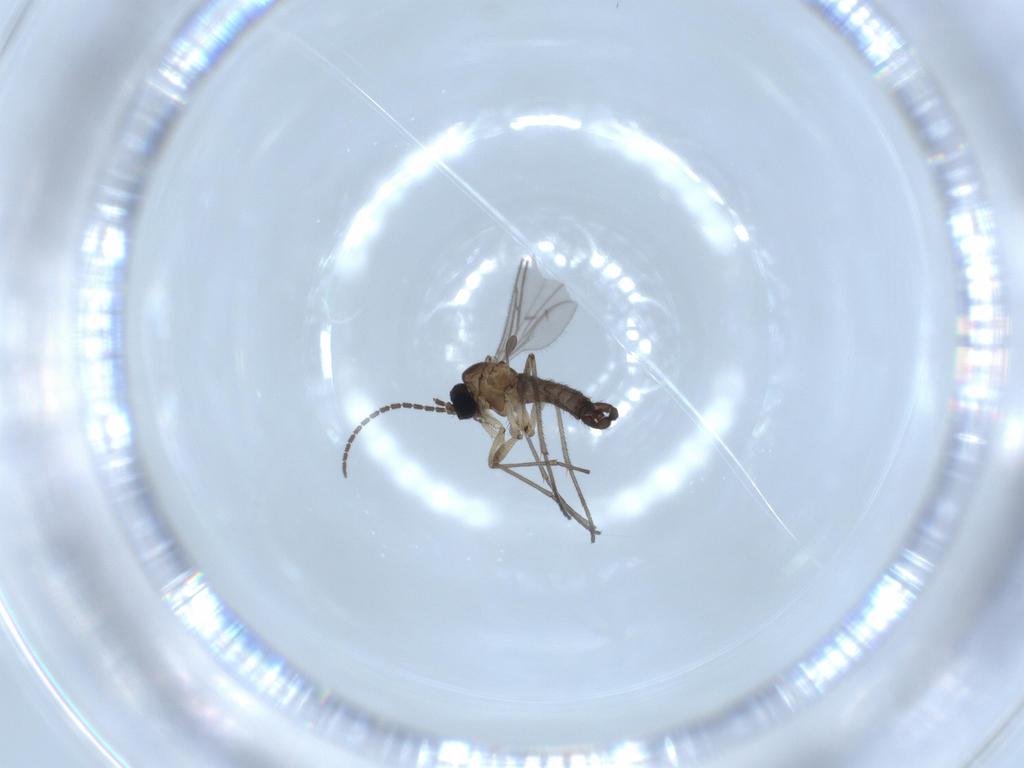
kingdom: Animalia
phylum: Arthropoda
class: Insecta
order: Diptera
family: Sciaridae
